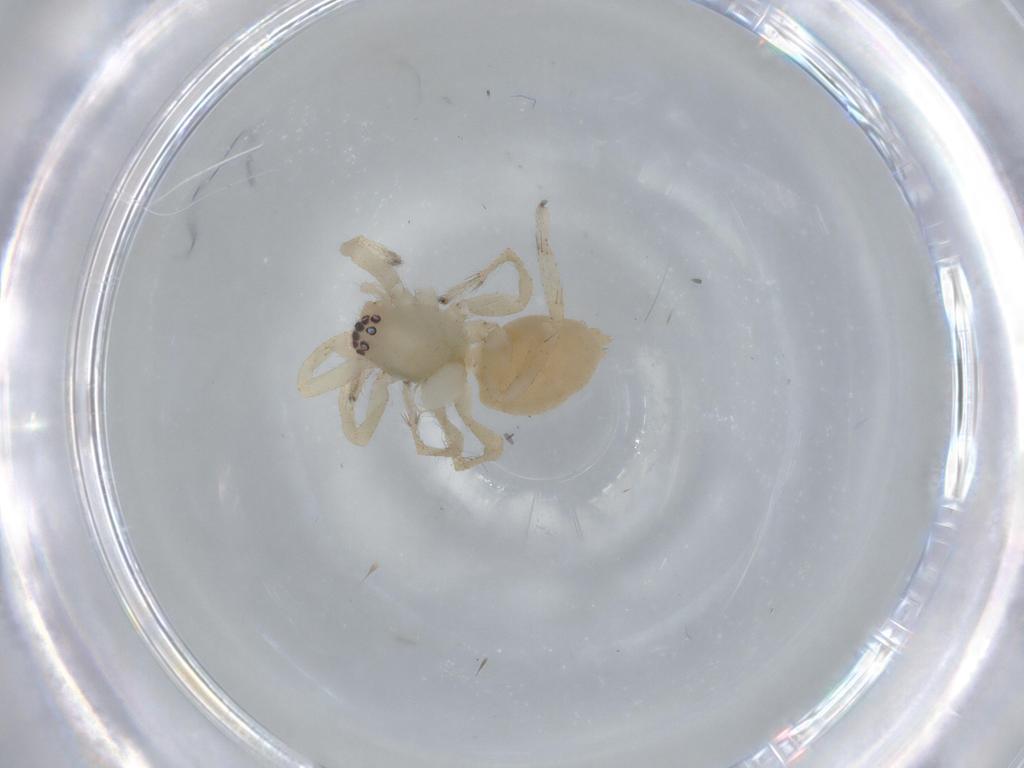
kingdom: Animalia
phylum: Arthropoda
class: Arachnida
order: Araneae
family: Linyphiidae
